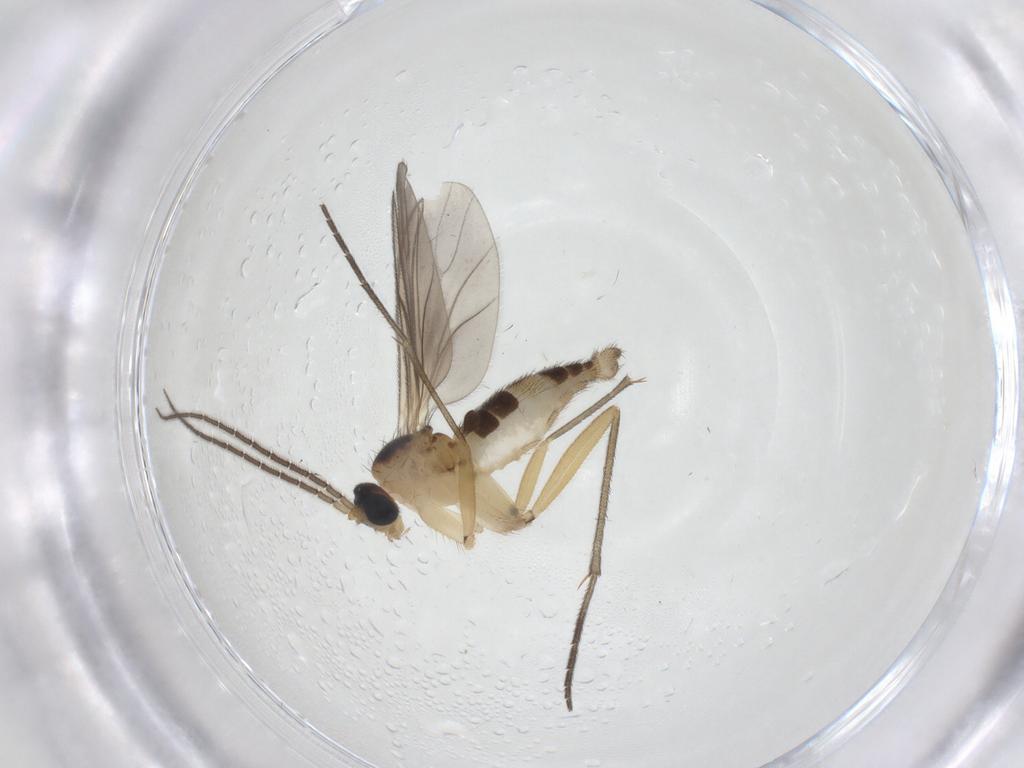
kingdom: Animalia
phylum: Arthropoda
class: Insecta
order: Diptera
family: Sciaridae
